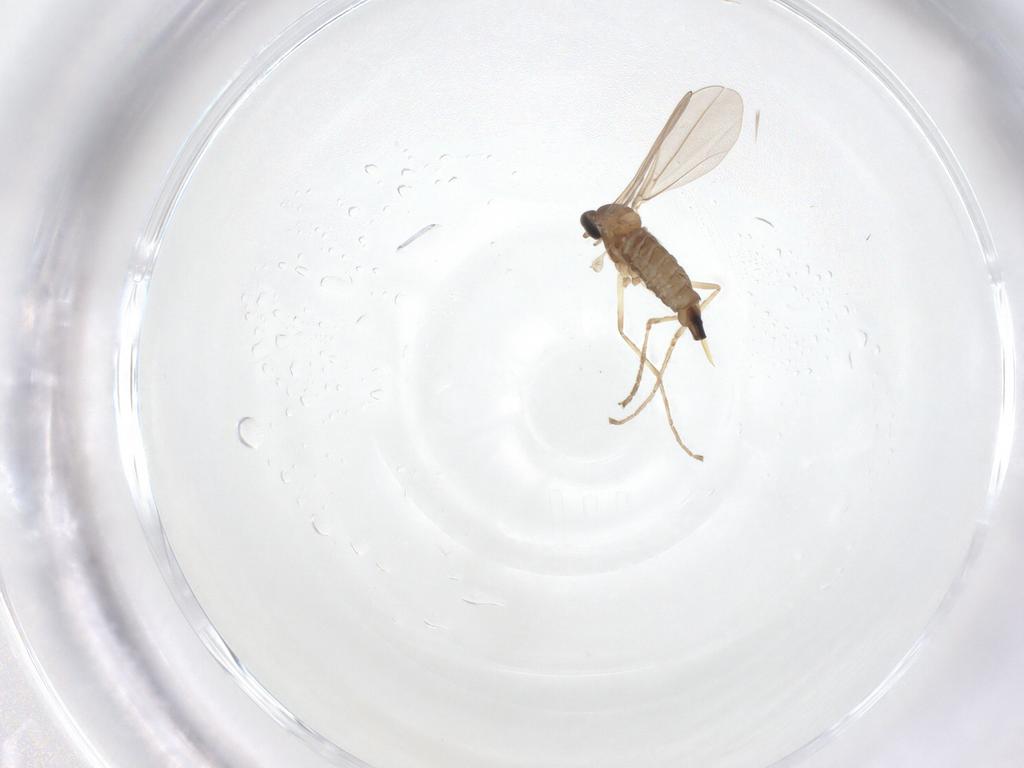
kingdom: Animalia
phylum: Arthropoda
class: Insecta
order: Diptera
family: Cecidomyiidae
